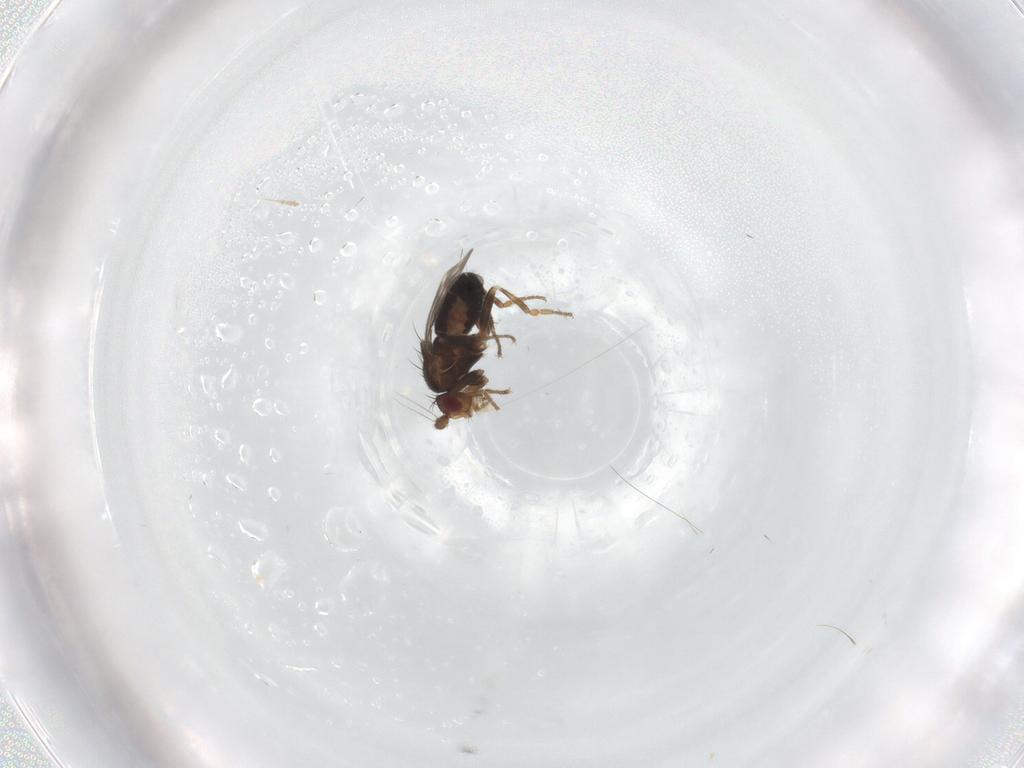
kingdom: Animalia
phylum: Arthropoda
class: Insecta
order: Diptera
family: Sphaeroceridae
